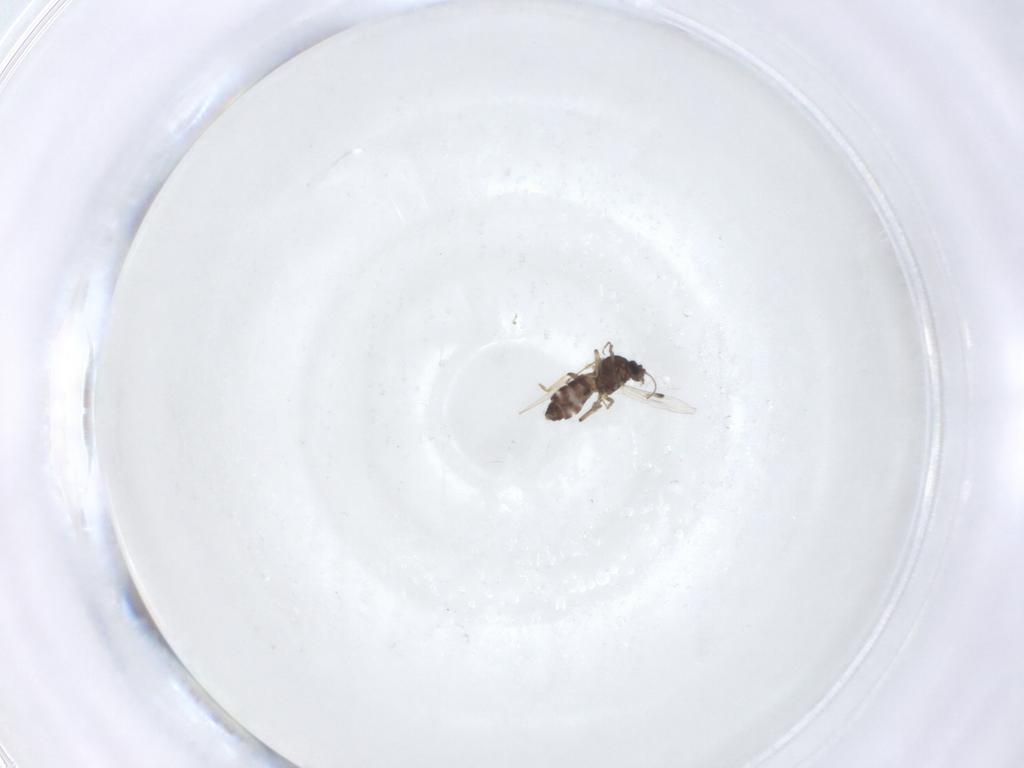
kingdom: Animalia
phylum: Arthropoda
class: Insecta
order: Diptera
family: Ceratopogonidae
